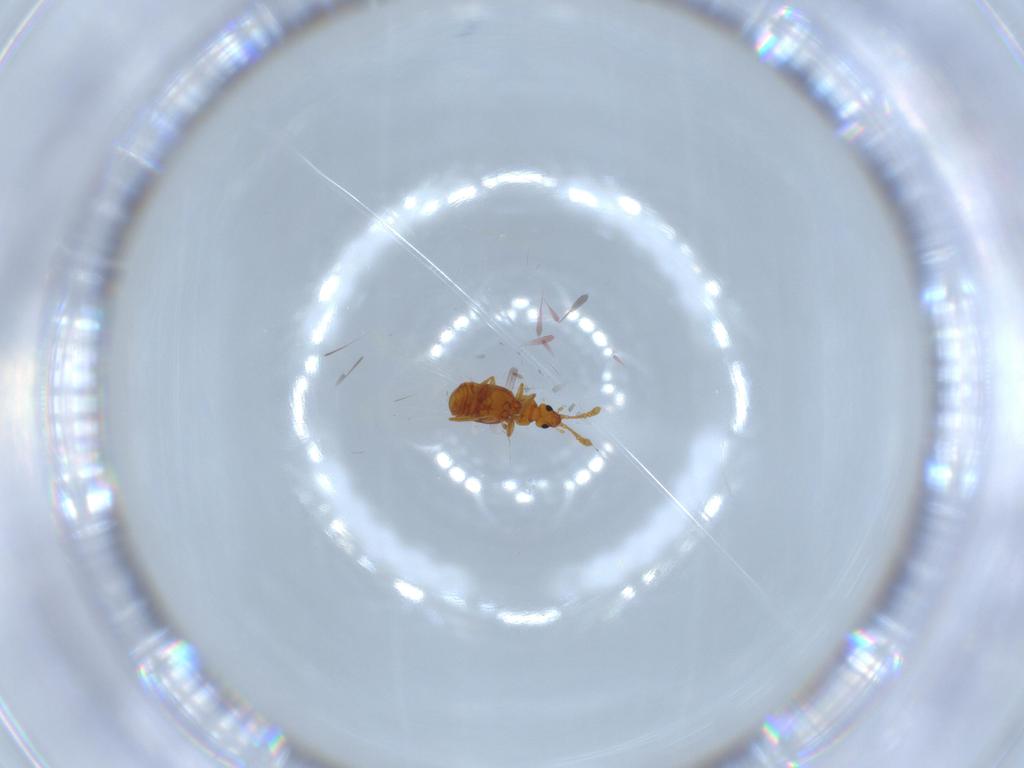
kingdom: Animalia
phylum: Arthropoda
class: Insecta
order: Coleoptera
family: Staphylinidae
